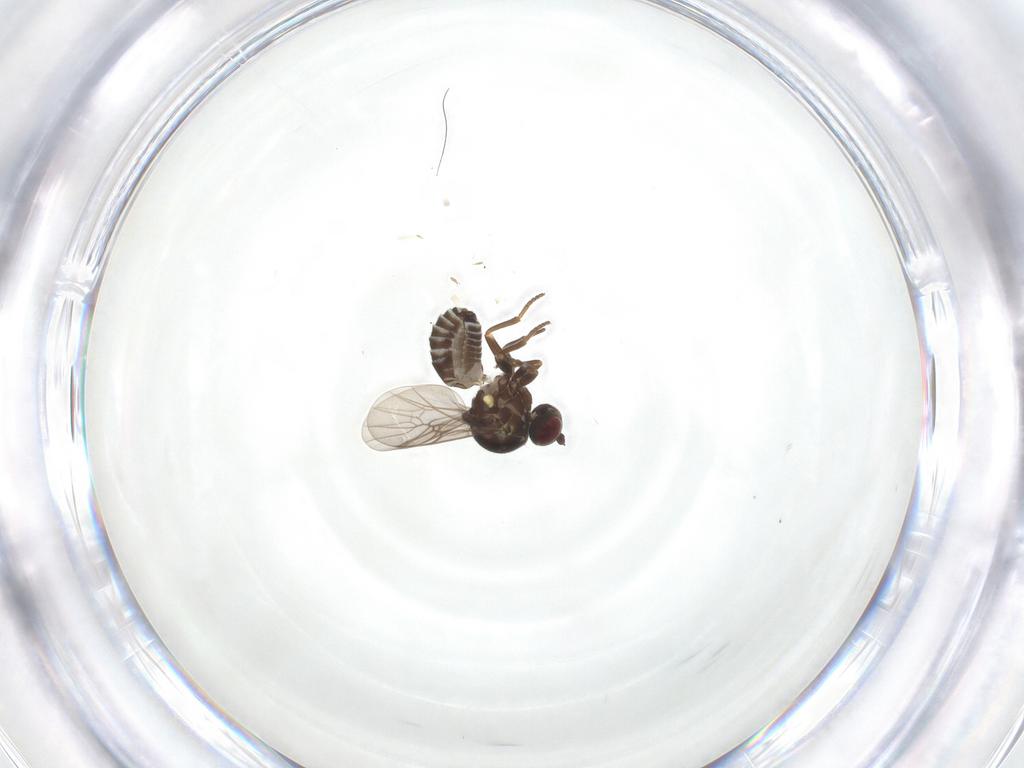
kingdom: Animalia
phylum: Arthropoda
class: Insecta
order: Diptera
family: Mythicomyiidae
